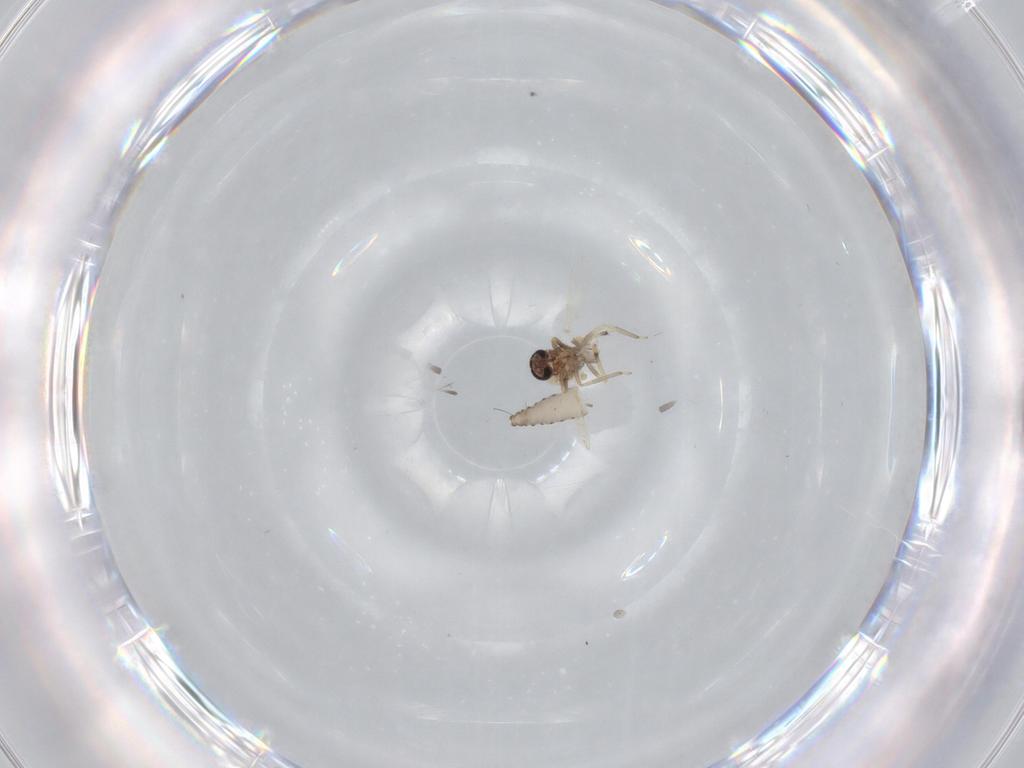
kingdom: Animalia
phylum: Arthropoda
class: Insecta
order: Diptera
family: Ceratopogonidae
